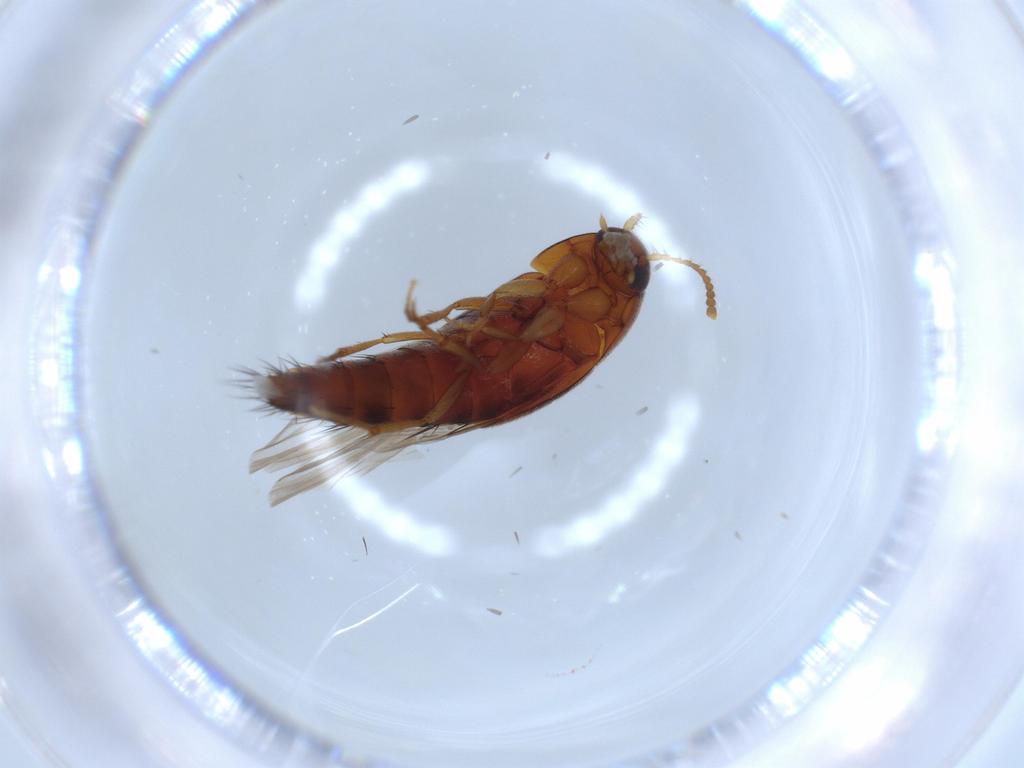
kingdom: Animalia
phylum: Arthropoda
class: Insecta
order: Coleoptera
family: Staphylinidae
